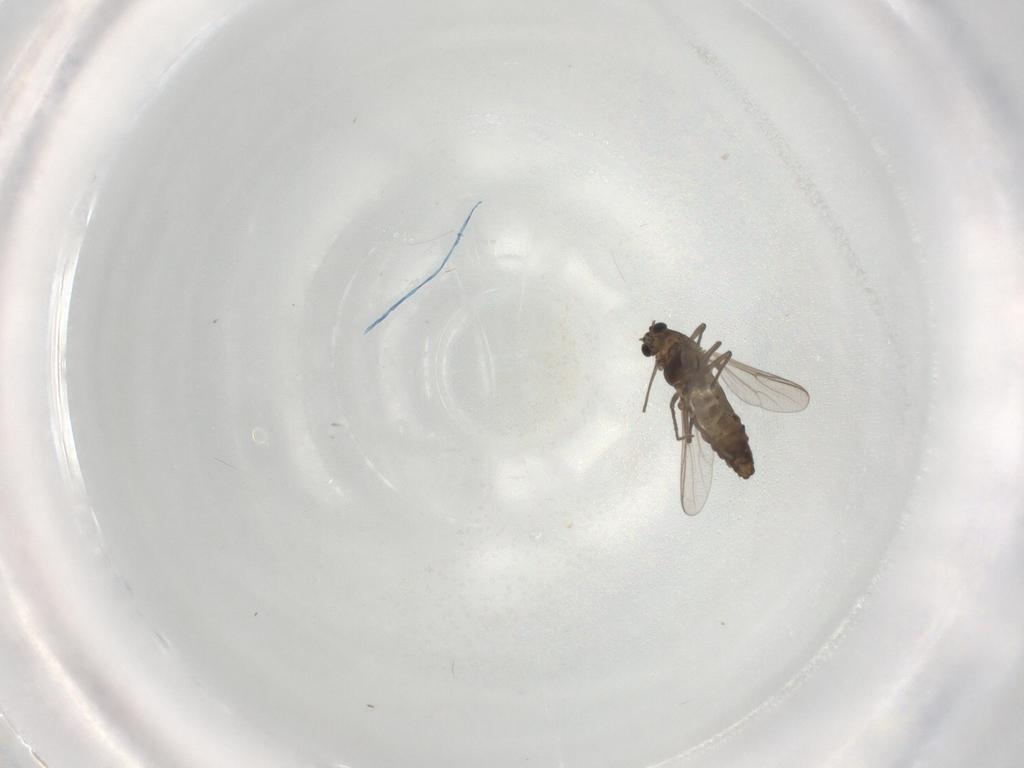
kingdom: Animalia
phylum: Arthropoda
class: Insecta
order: Diptera
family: Chironomidae
